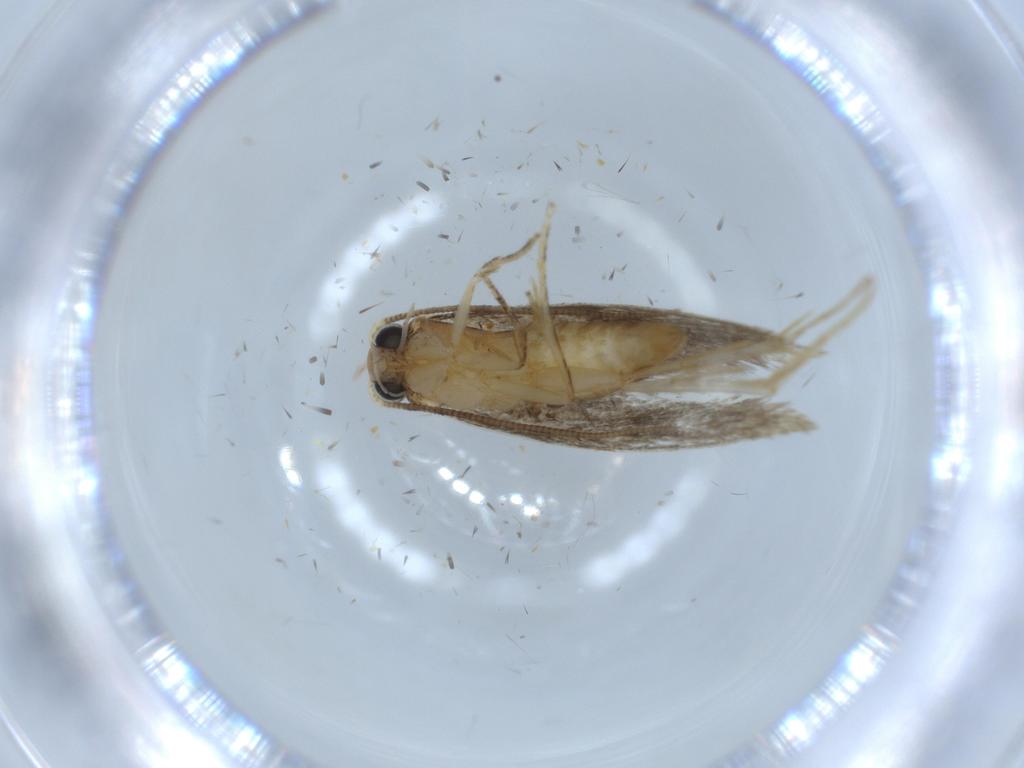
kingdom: Animalia
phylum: Arthropoda
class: Insecta
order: Lepidoptera
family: Tineidae
